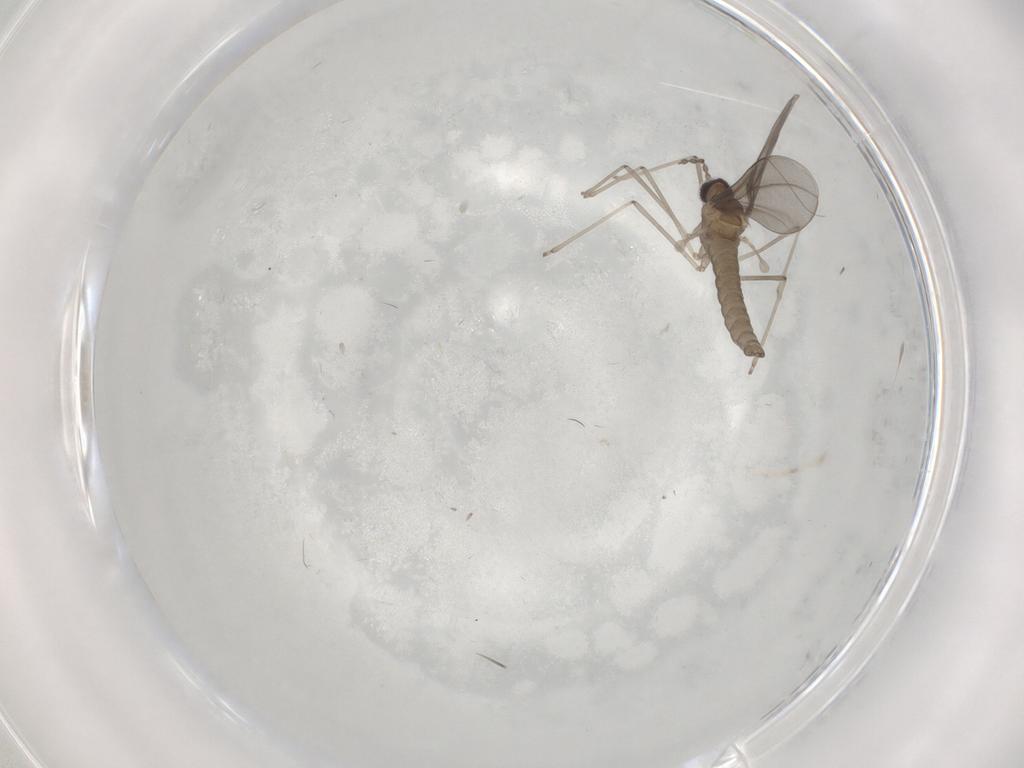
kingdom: Animalia
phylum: Arthropoda
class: Insecta
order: Diptera
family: Cecidomyiidae
